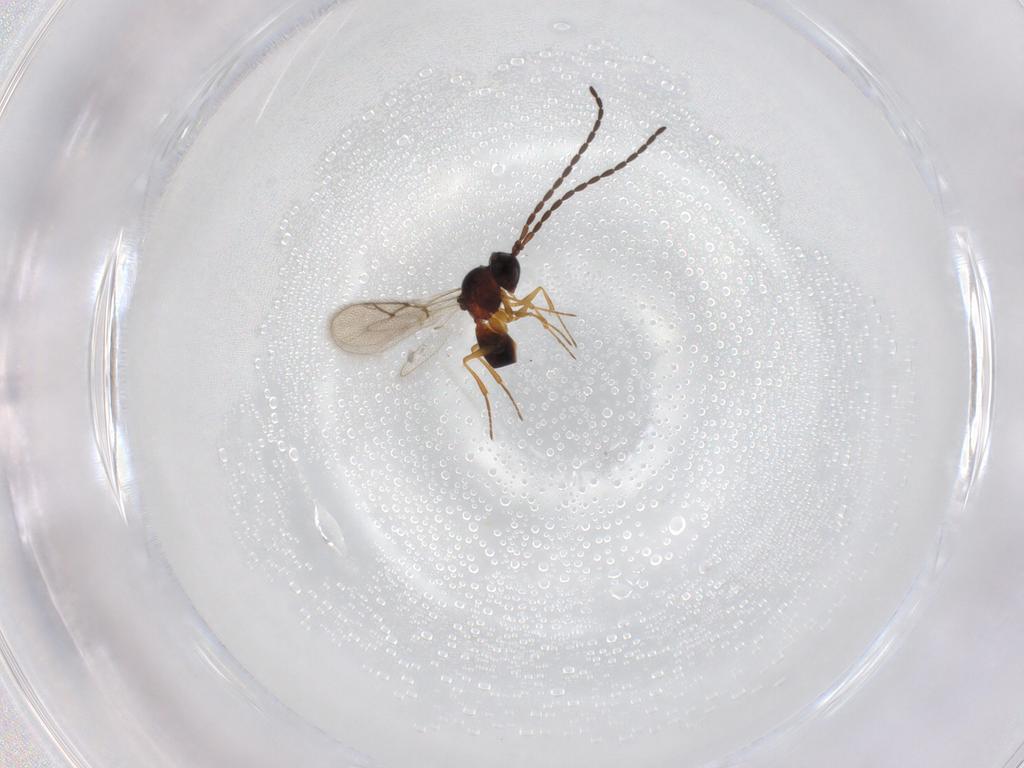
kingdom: Animalia
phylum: Arthropoda
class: Insecta
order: Hymenoptera
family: Figitidae
